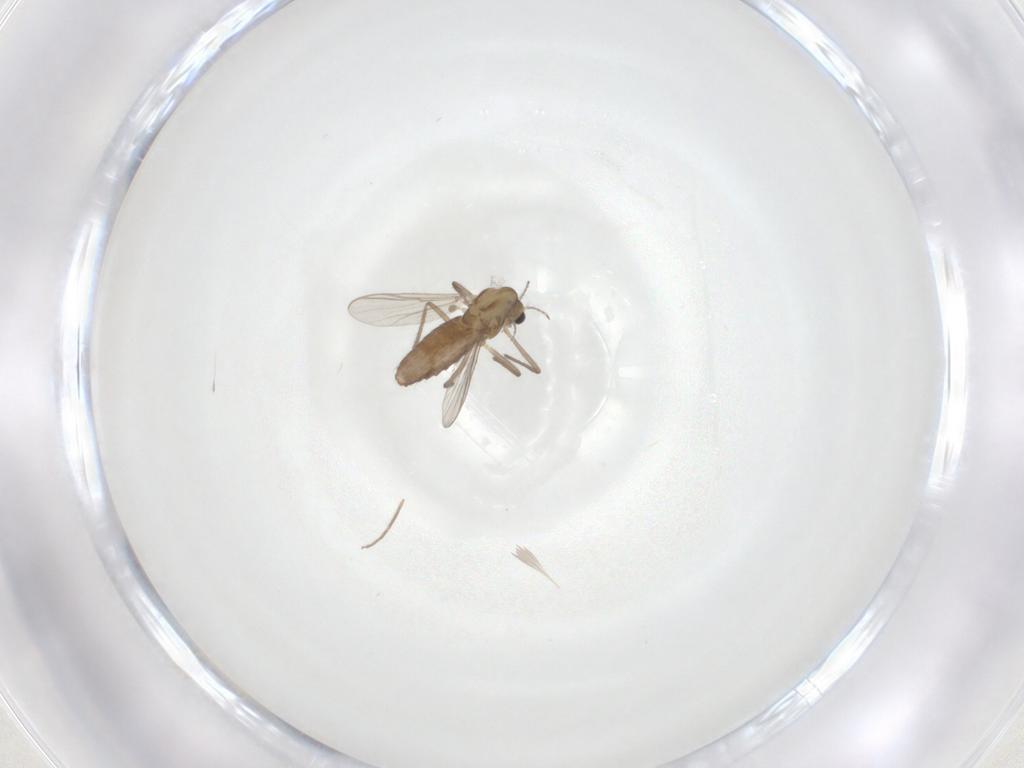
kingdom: Animalia
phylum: Arthropoda
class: Insecta
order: Diptera
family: Chironomidae
